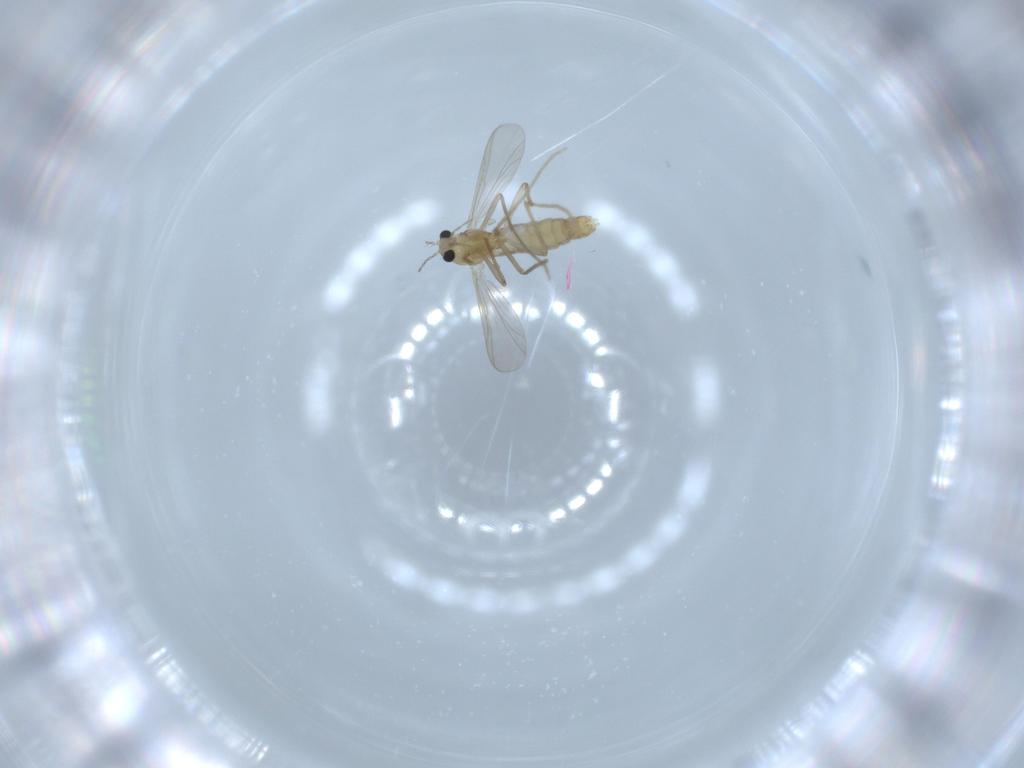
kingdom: Animalia
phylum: Arthropoda
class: Insecta
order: Diptera
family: Chironomidae
